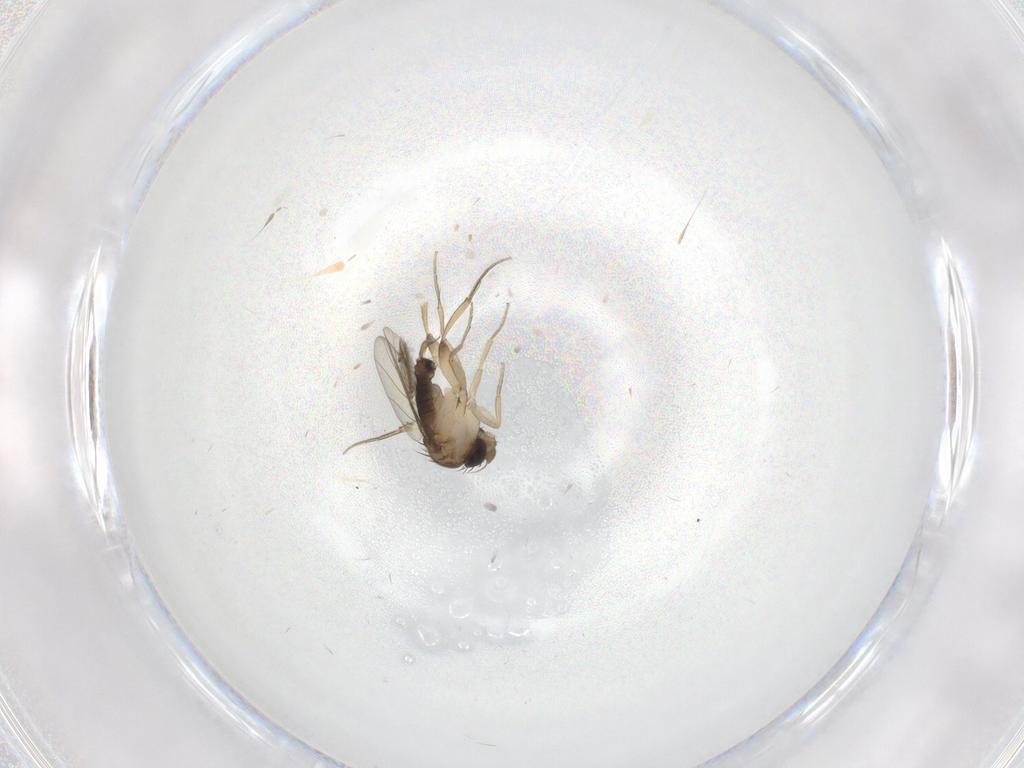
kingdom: Animalia
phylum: Arthropoda
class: Insecta
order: Diptera
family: Ceratopogonidae
